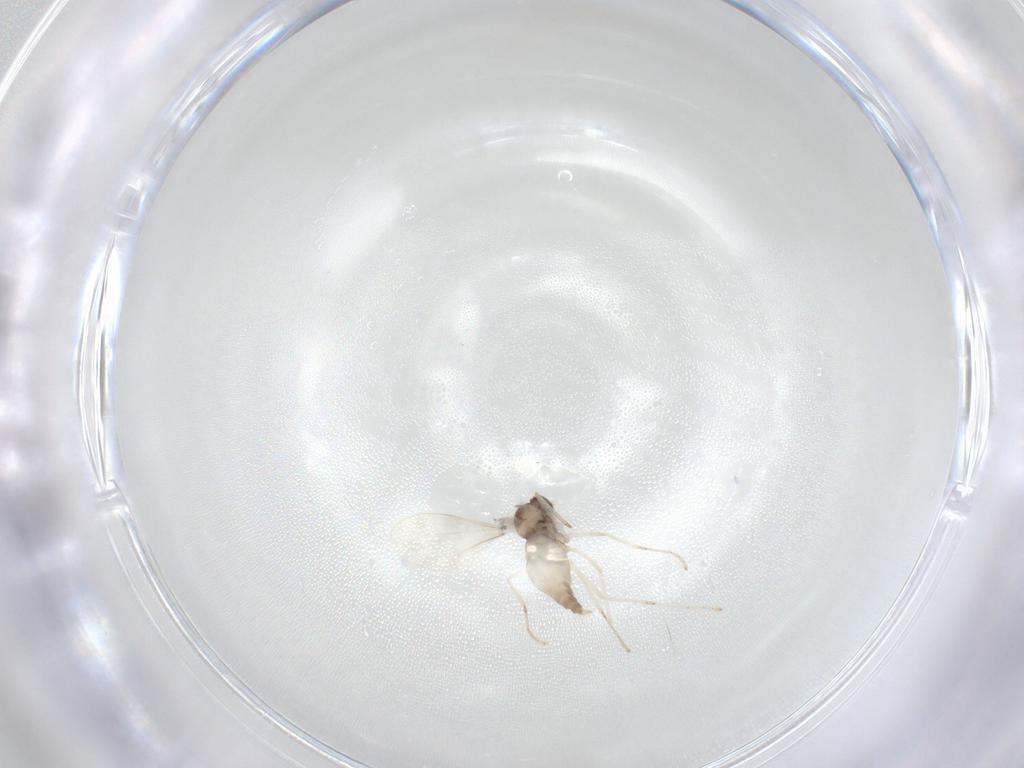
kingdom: Animalia
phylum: Arthropoda
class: Insecta
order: Diptera
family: Cecidomyiidae
